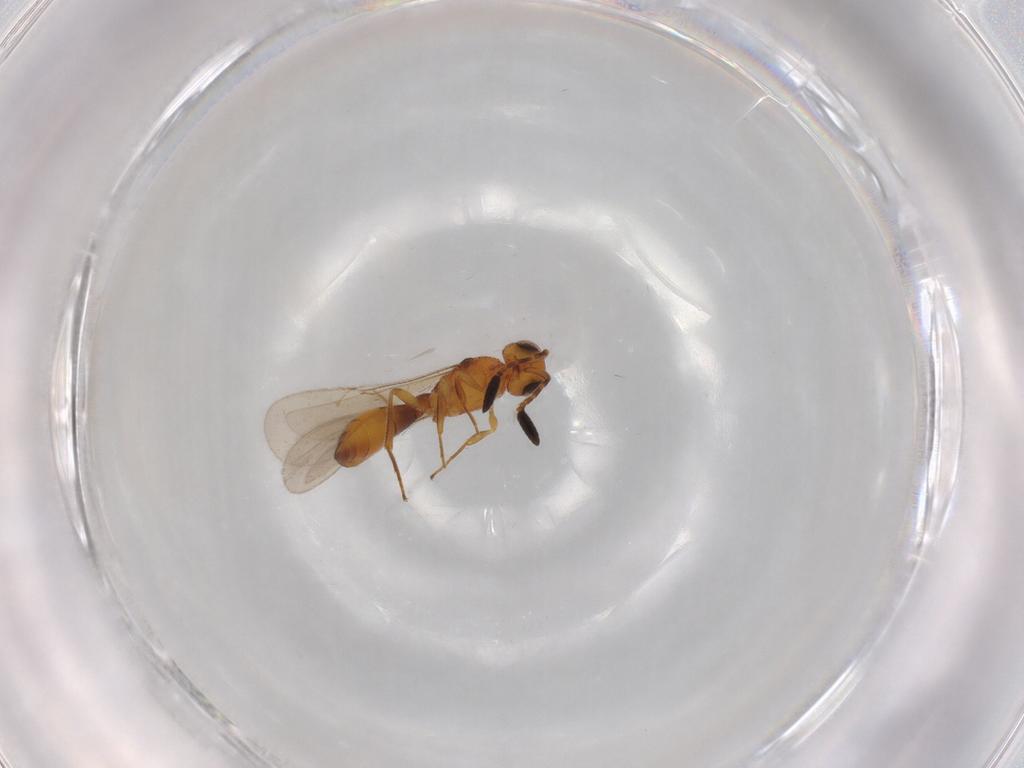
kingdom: Animalia
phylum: Arthropoda
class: Insecta
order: Hymenoptera
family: Scelionidae
